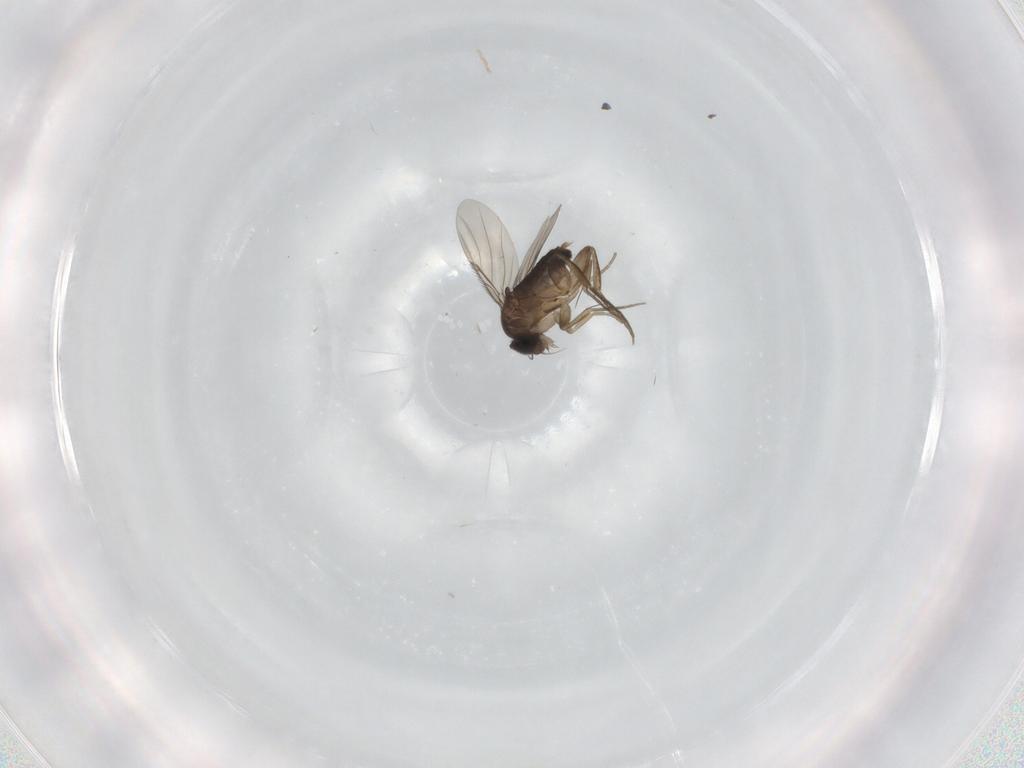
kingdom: Animalia
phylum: Arthropoda
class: Insecta
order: Diptera
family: Phoridae
